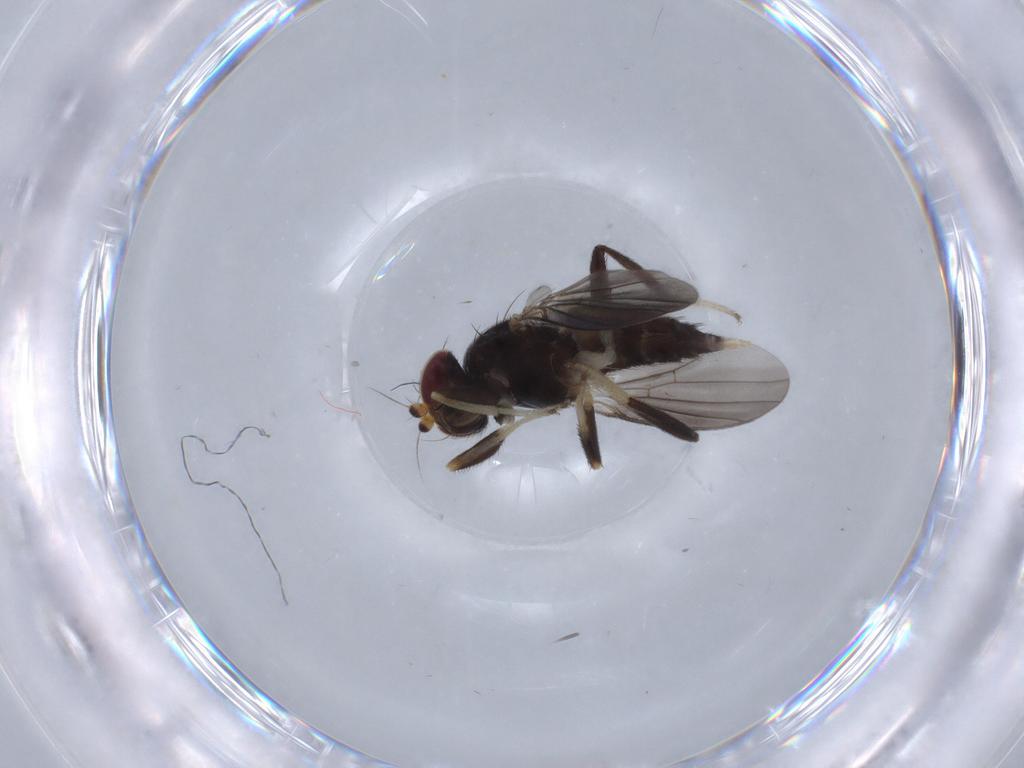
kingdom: Animalia
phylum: Arthropoda
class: Insecta
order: Diptera
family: Clusiidae
